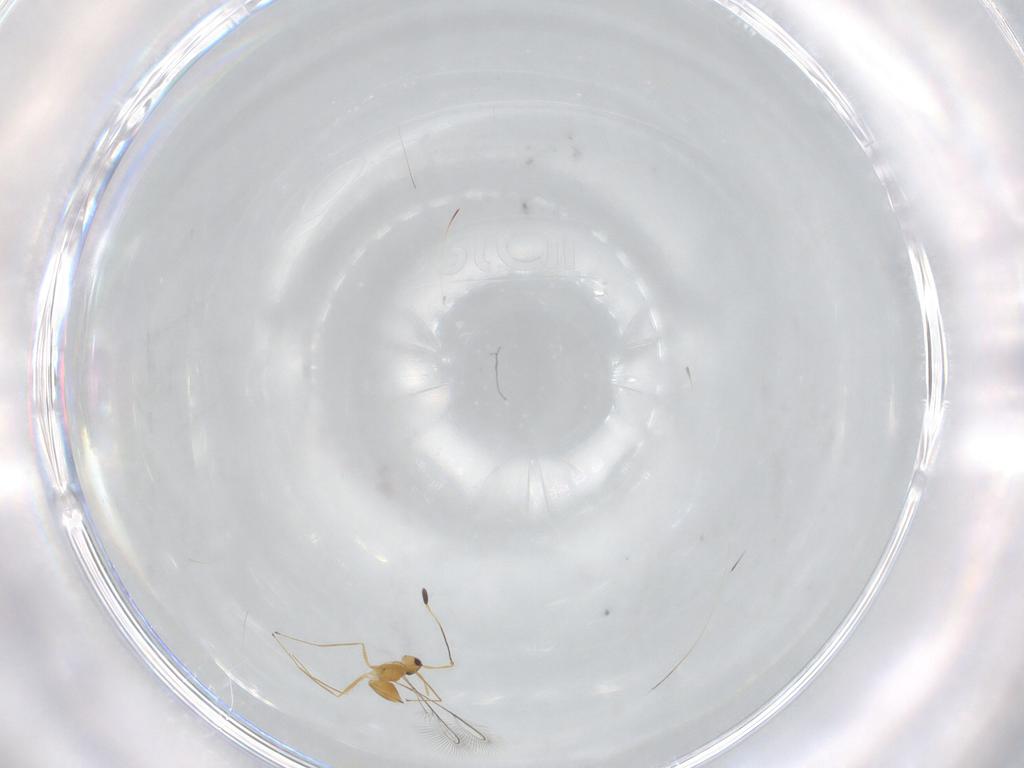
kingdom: Animalia
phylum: Arthropoda
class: Insecta
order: Hymenoptera
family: Mymaridae
